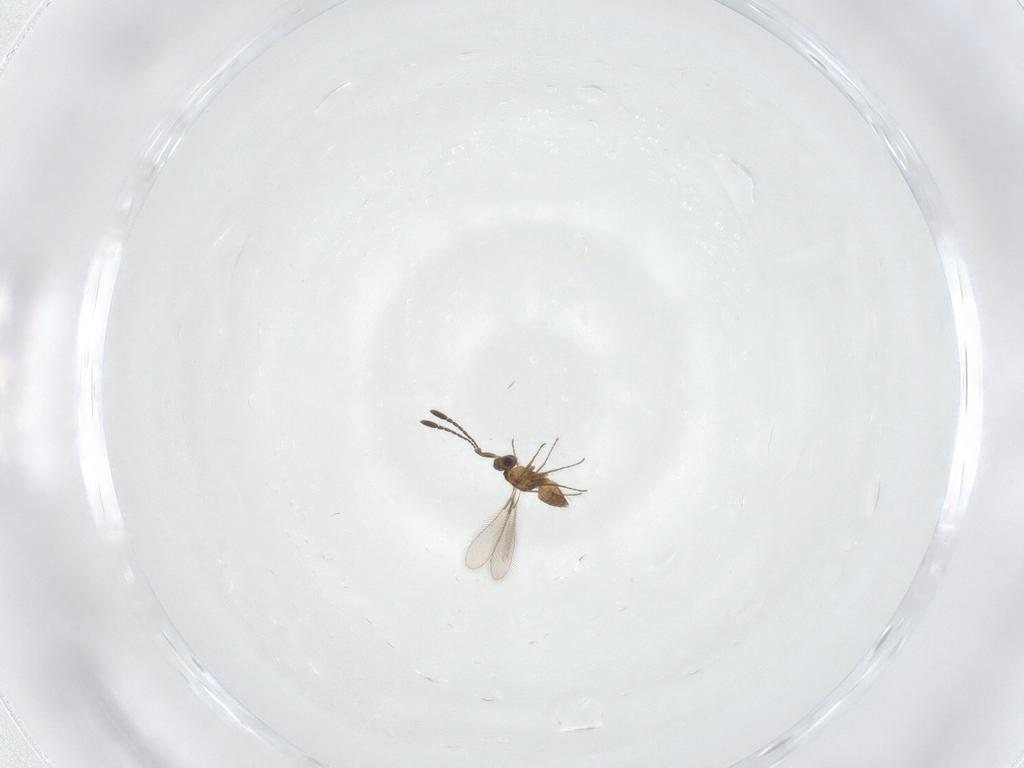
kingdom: Animalia
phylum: Arthropoda
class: Insecta
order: Hymenoptera
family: Mymaridae
